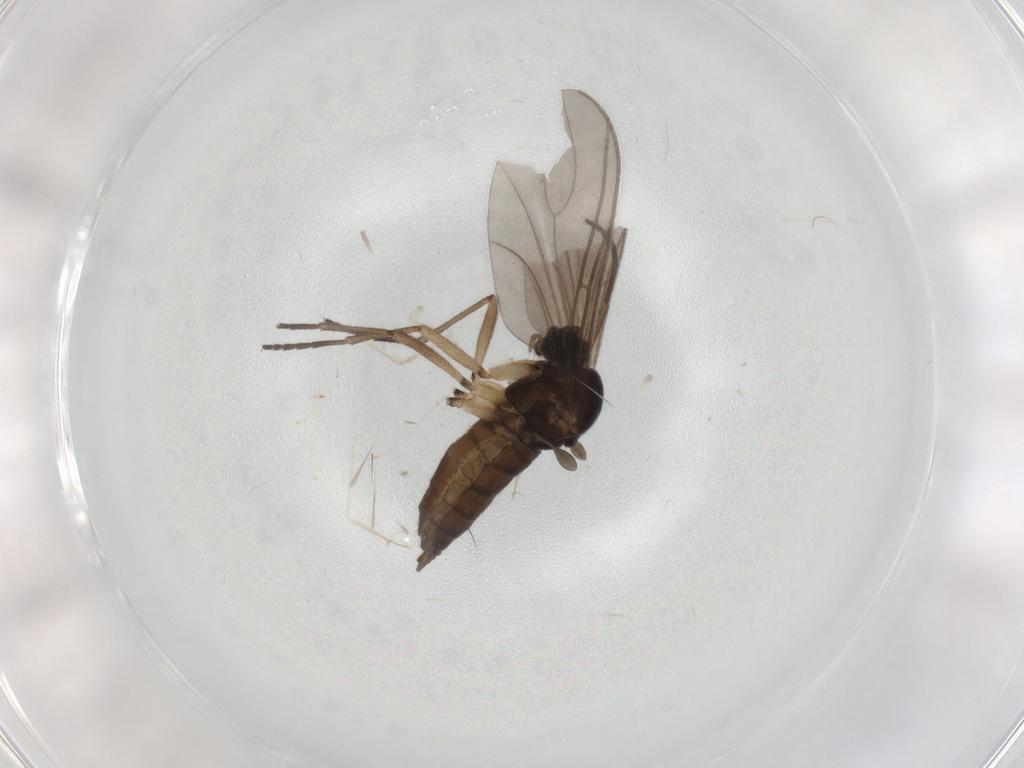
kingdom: Animalia
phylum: Arthropoda
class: Insecta
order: Diptera
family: Sciaridae
